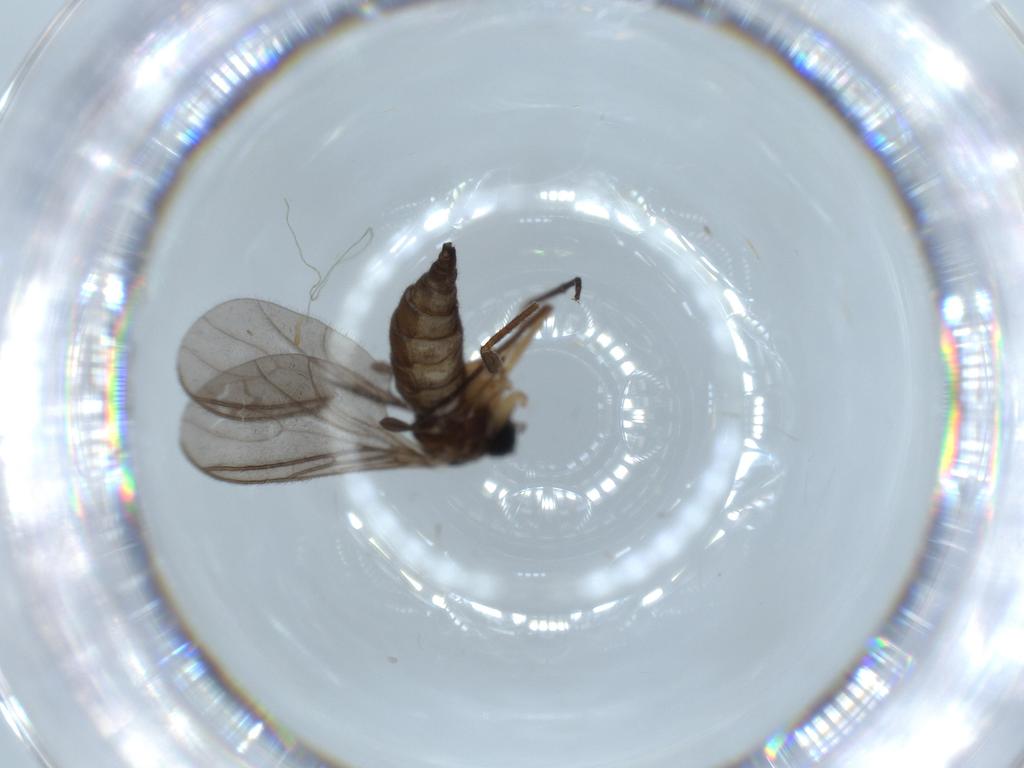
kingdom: Animalia
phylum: Arthropoda
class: Insecta
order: Diptera
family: Sciaridae
